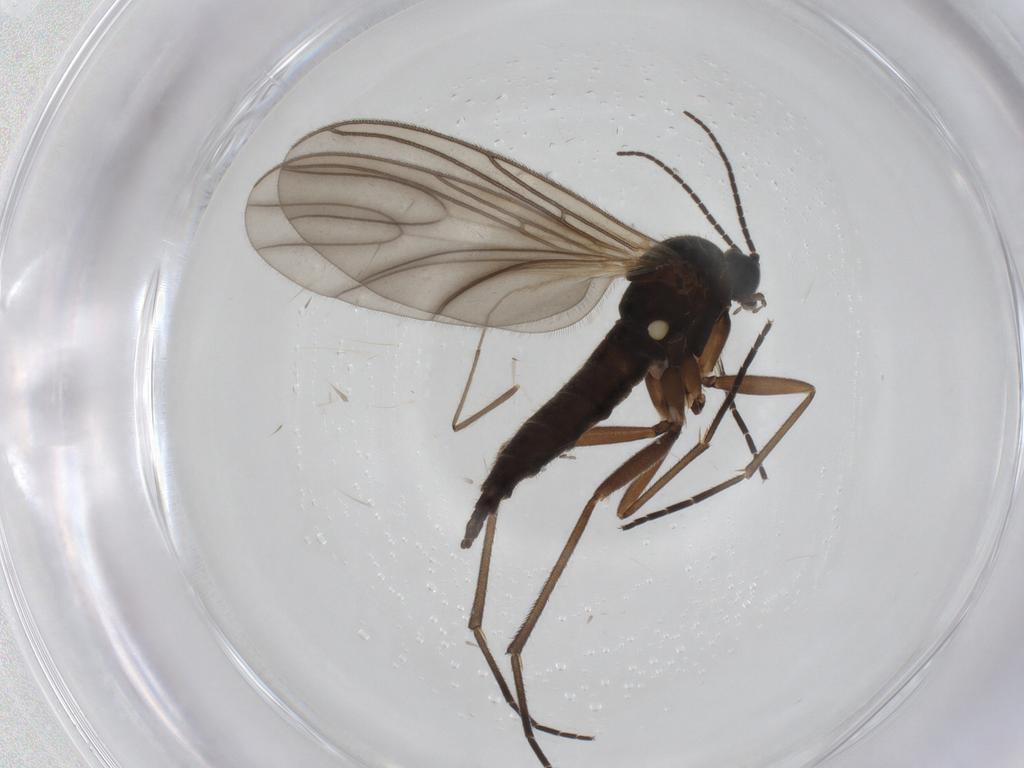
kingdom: Animalia
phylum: Arthropoda
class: Insecta
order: Diptera
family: Sciaridae
